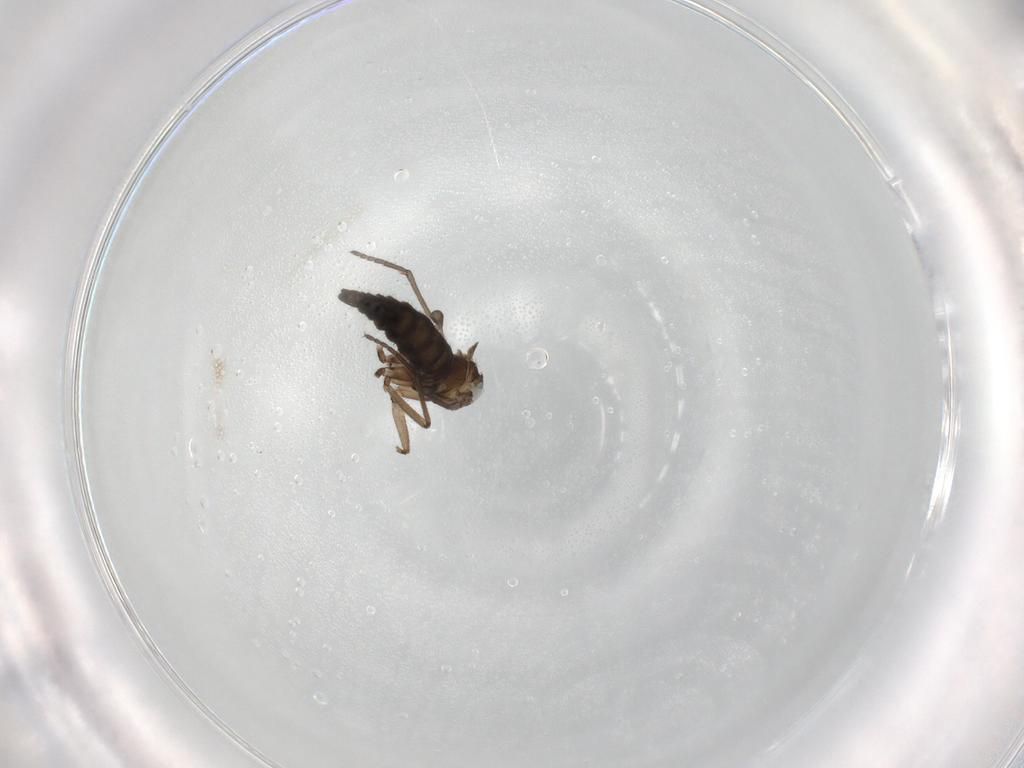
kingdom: Animalia
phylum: Arthropoda
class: Insecta
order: Diptera
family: Sciaridae
